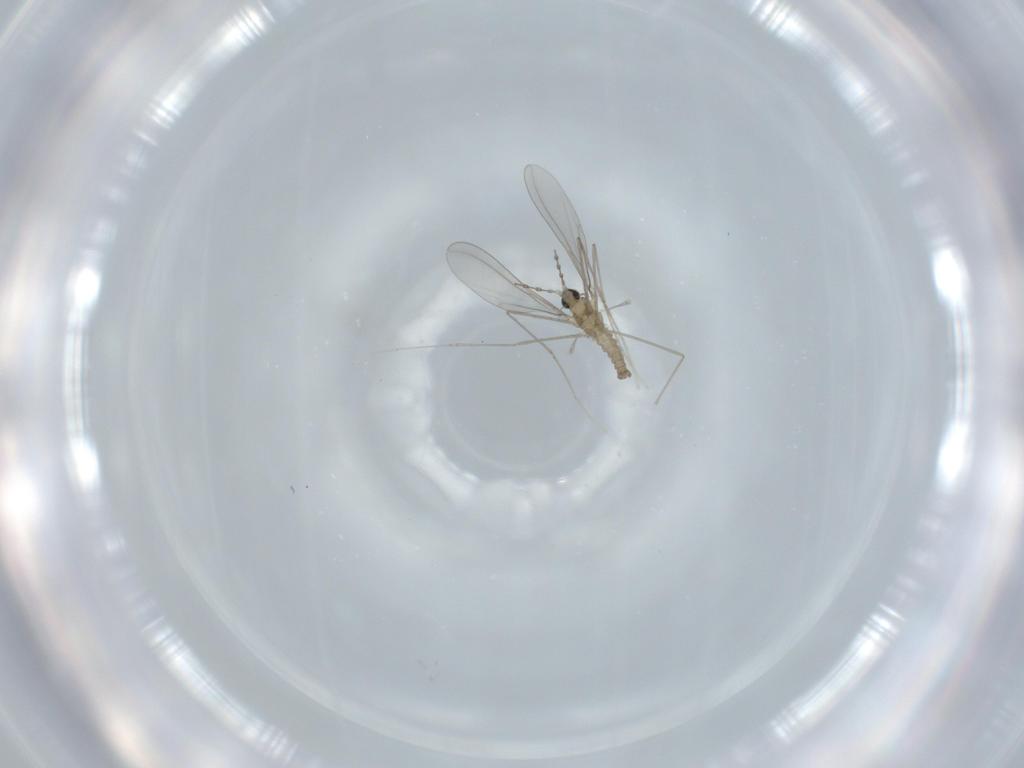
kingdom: Animalia
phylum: Arthropoda
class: Insecta
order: Diptera
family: Cecidomyiidae
